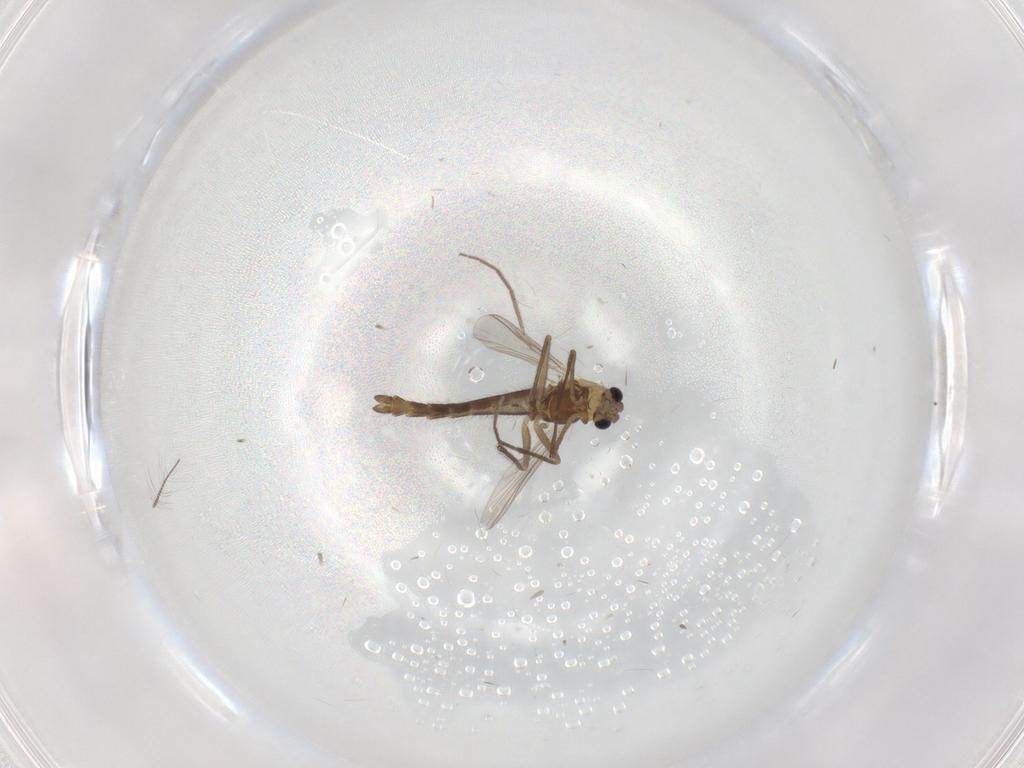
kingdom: Animalia
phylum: Arthropoda
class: Insecta
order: Diptera
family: Chironomidae
